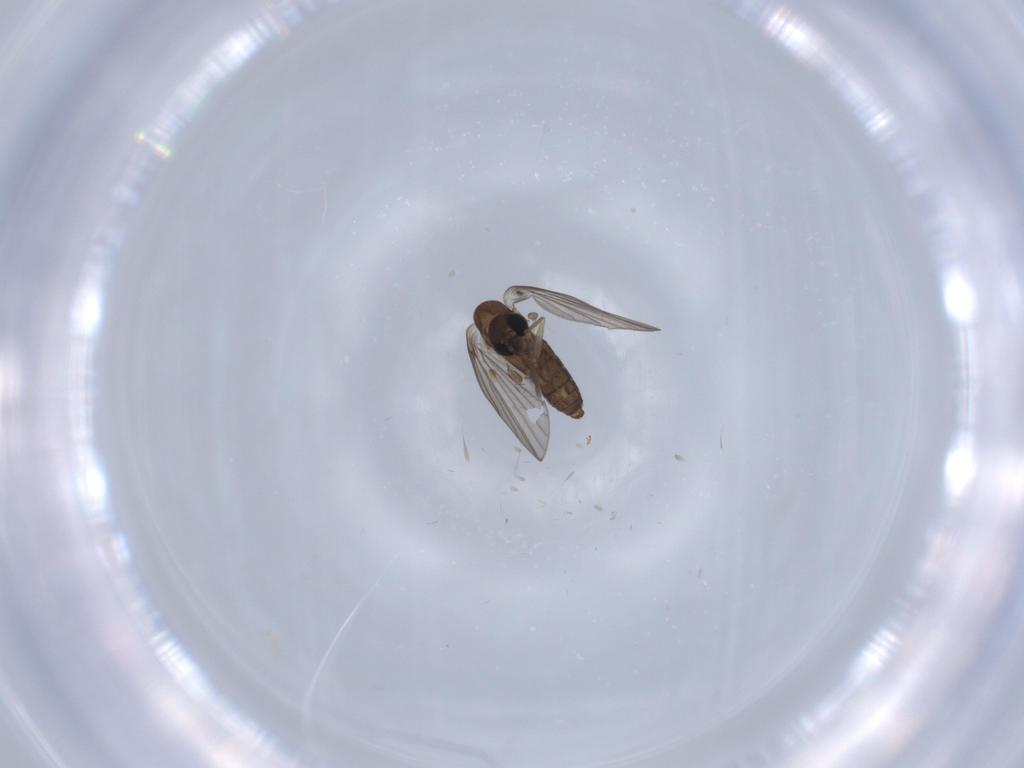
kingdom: Animalia
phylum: Arthropoda
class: Insecta
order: Diptera
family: Psychodidae
